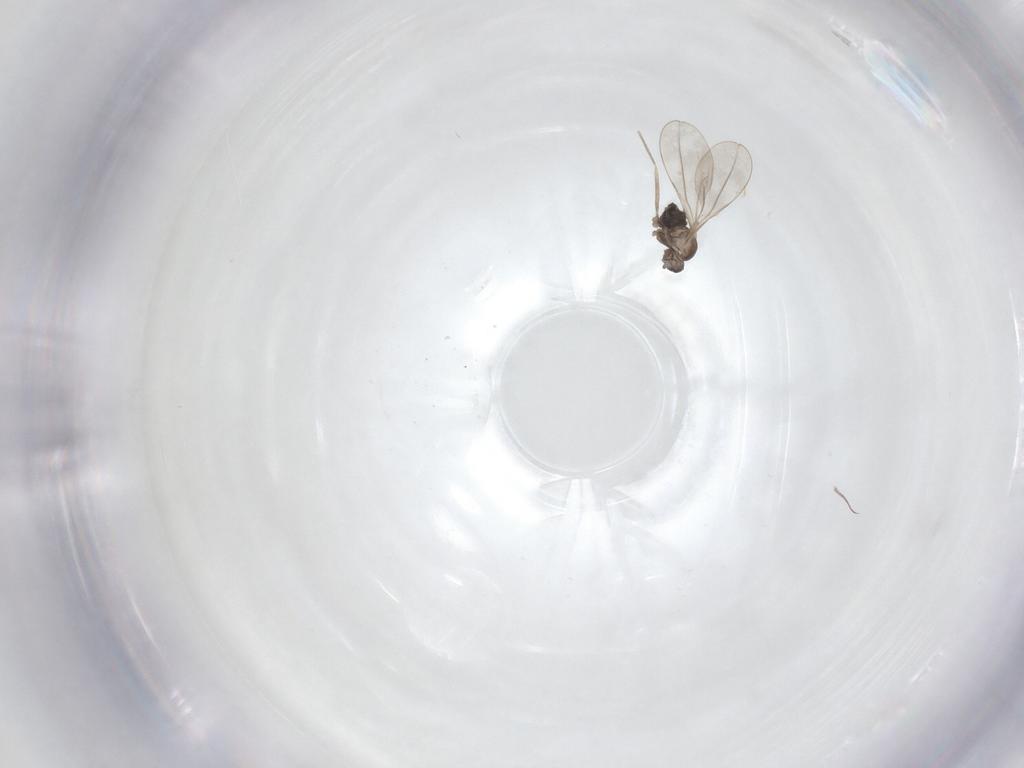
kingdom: Animalia
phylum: Arthropoda
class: Insecta
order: Diptera
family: Cecidomyiidae
